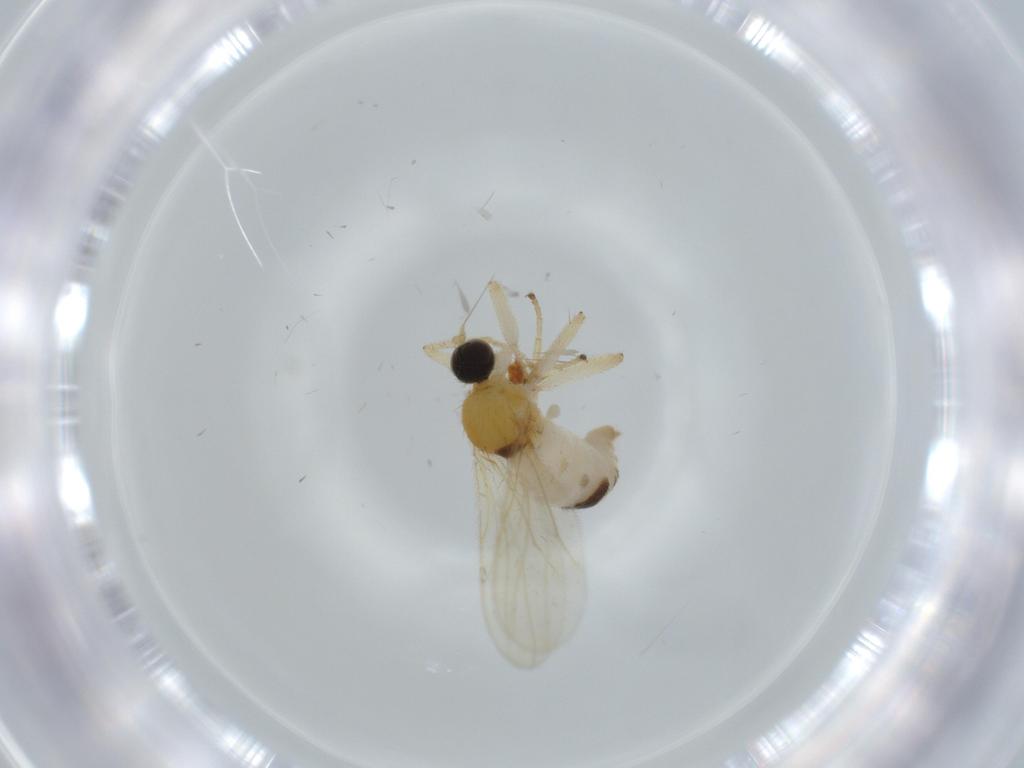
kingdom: Animalia
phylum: Arthropoda
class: Insecta
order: Diptera
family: Hybotidae
